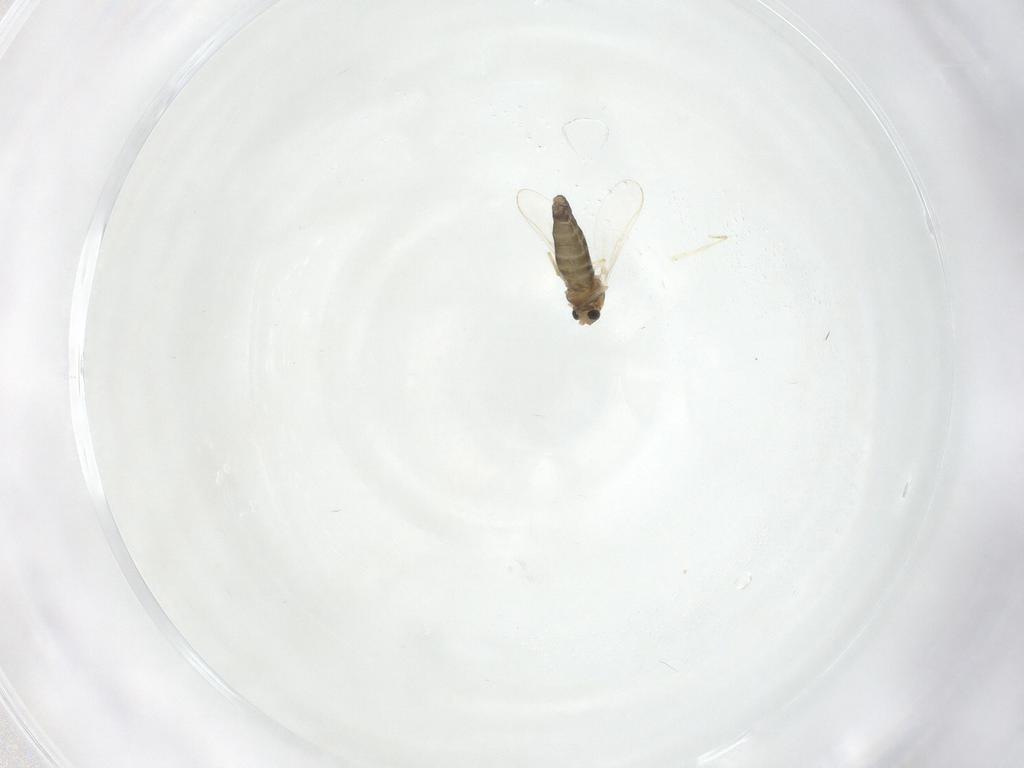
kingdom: Animalia
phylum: Arthropoda
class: Insecta
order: Diptera
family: Chironomidae
